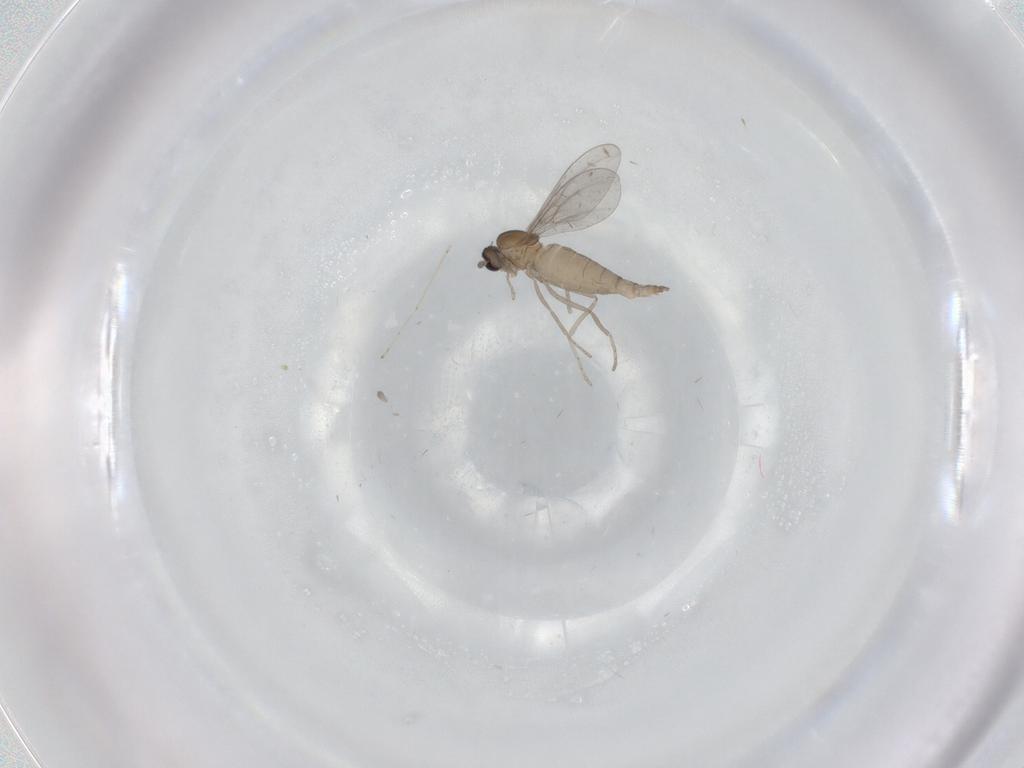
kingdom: Animalia
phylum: Arthropoda
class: Insecta
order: Diptera
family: Cecidomyiidae
